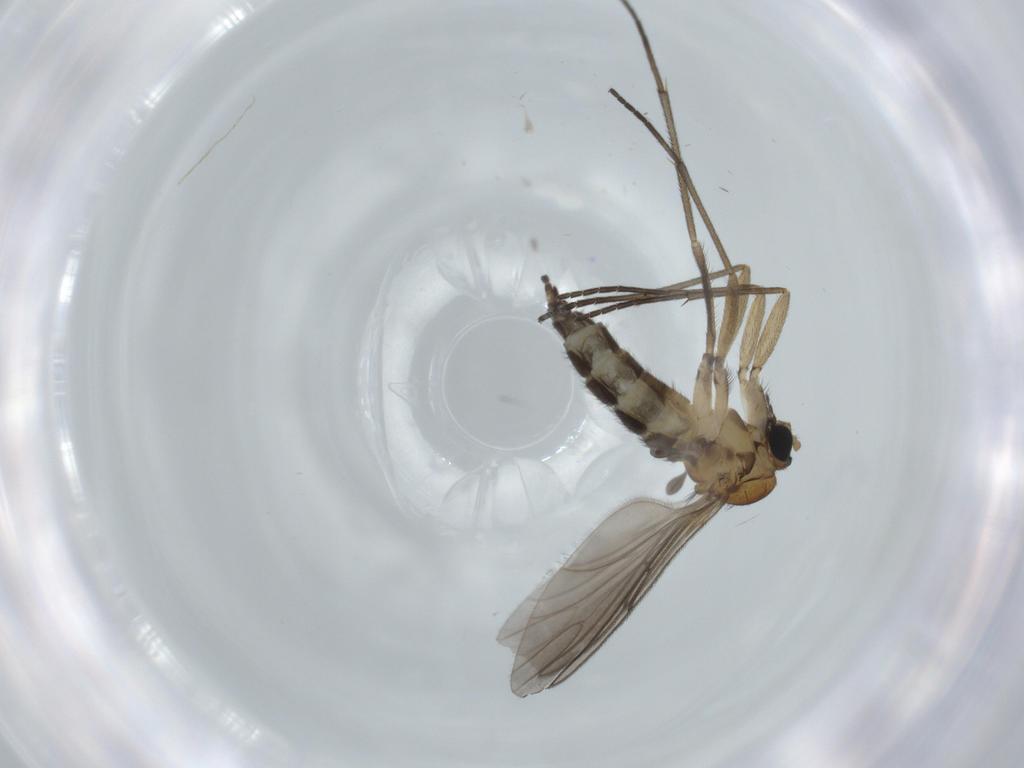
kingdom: Animalia
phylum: Arthropoda
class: Insecta
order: Diptera
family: Sciaridae
